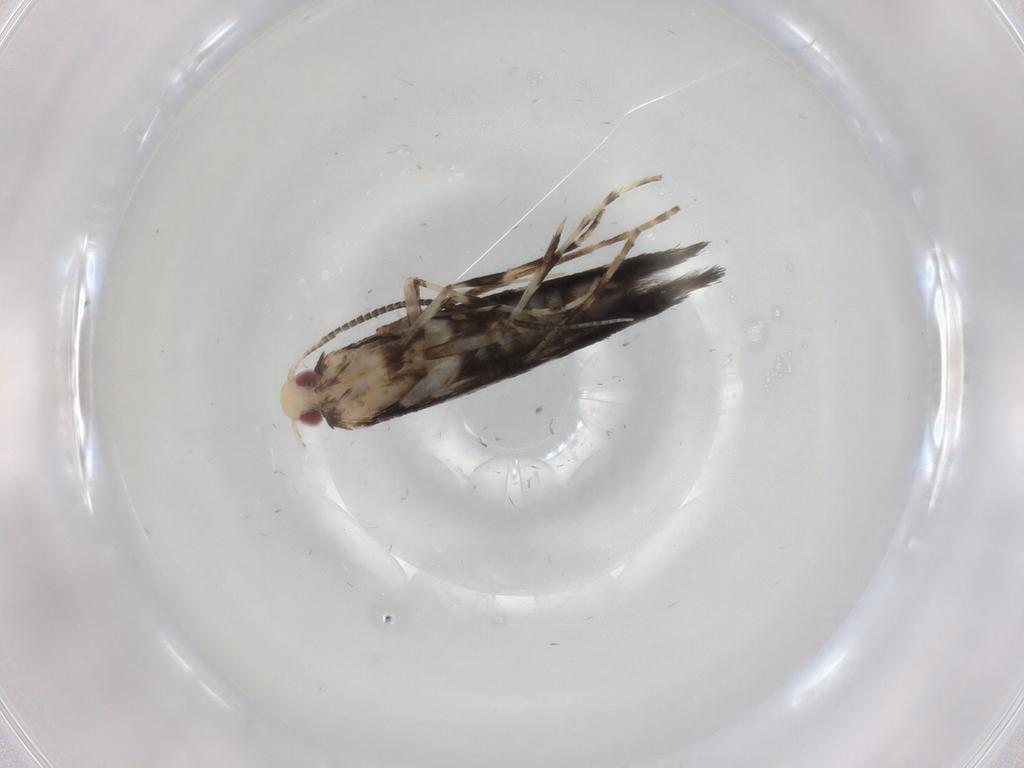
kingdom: Animalia
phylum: Arthropoda
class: Insecta
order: Lepidoptera
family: Gracillariidae
